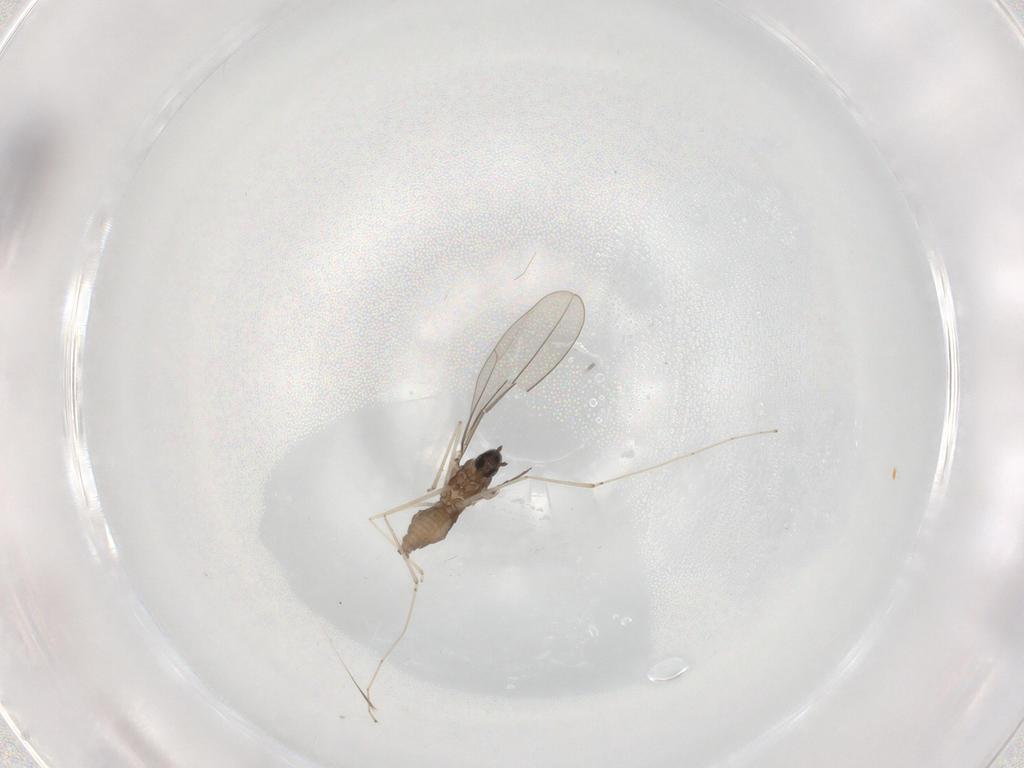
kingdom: Animalia
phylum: Arthropoda
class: Insecta
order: Diptera
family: Cecidomyiidae
